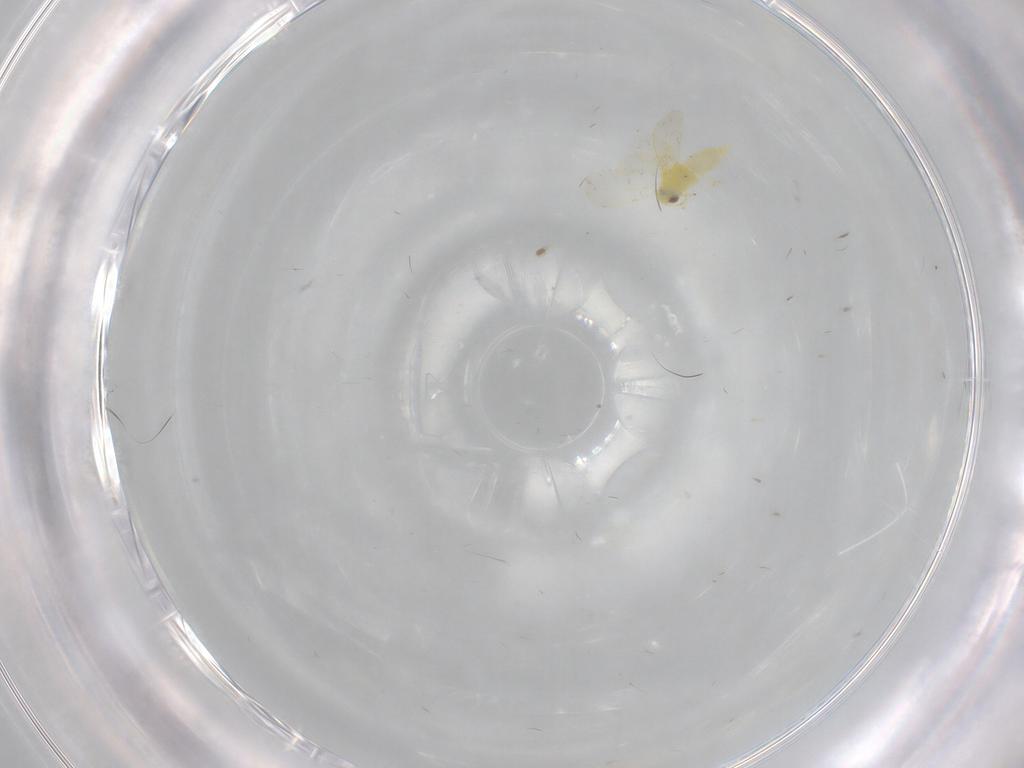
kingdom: Animalia
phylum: Arthropoda
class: Insecta
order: Hemiptera
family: Aleyrodidae
